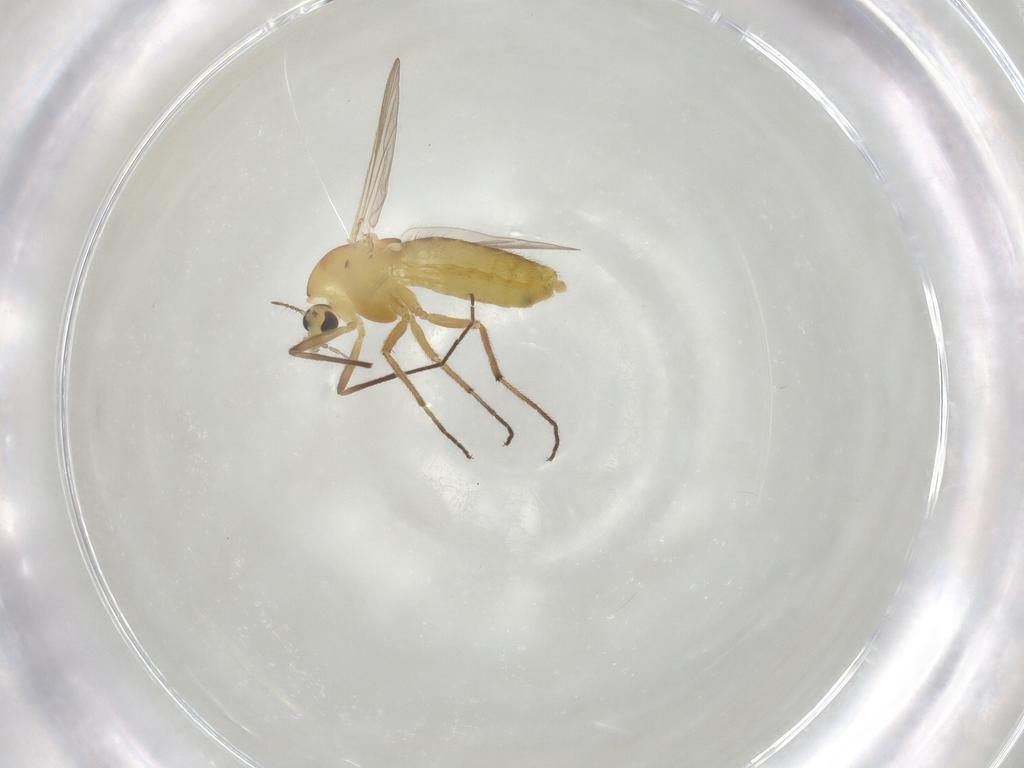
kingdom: Animalia
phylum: Arthropoda
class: Insecta
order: Diptera
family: Chironomidae
